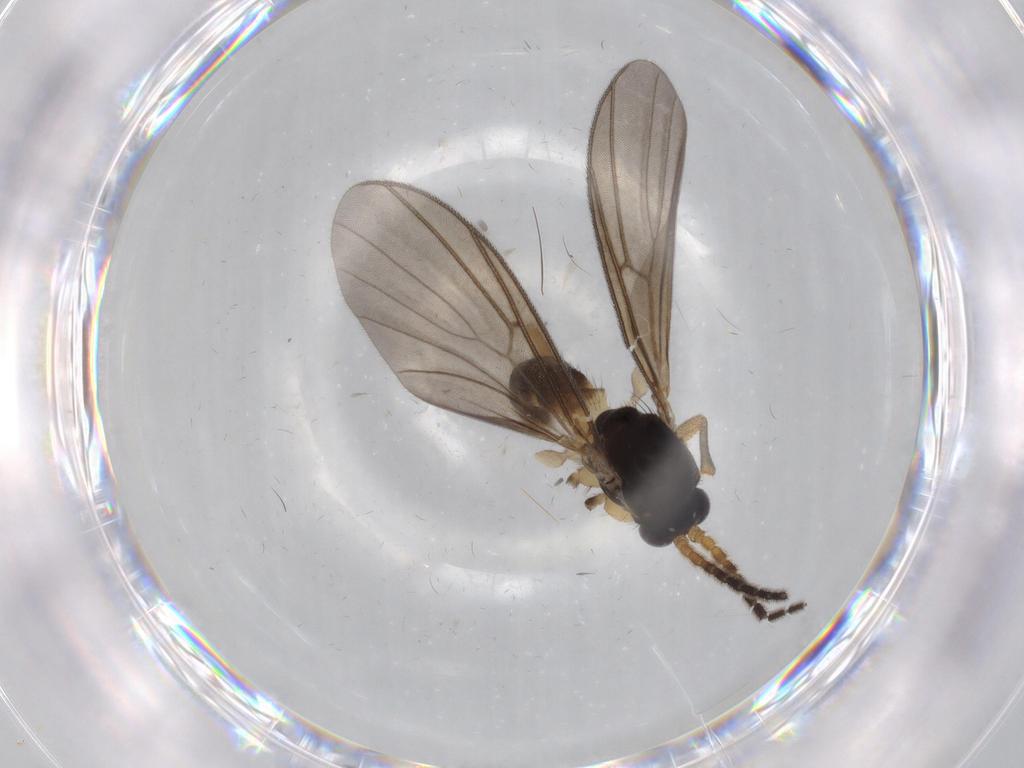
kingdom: Animalia
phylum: Arthropoda
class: Insecta
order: Diptera
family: Mycetophilidae
